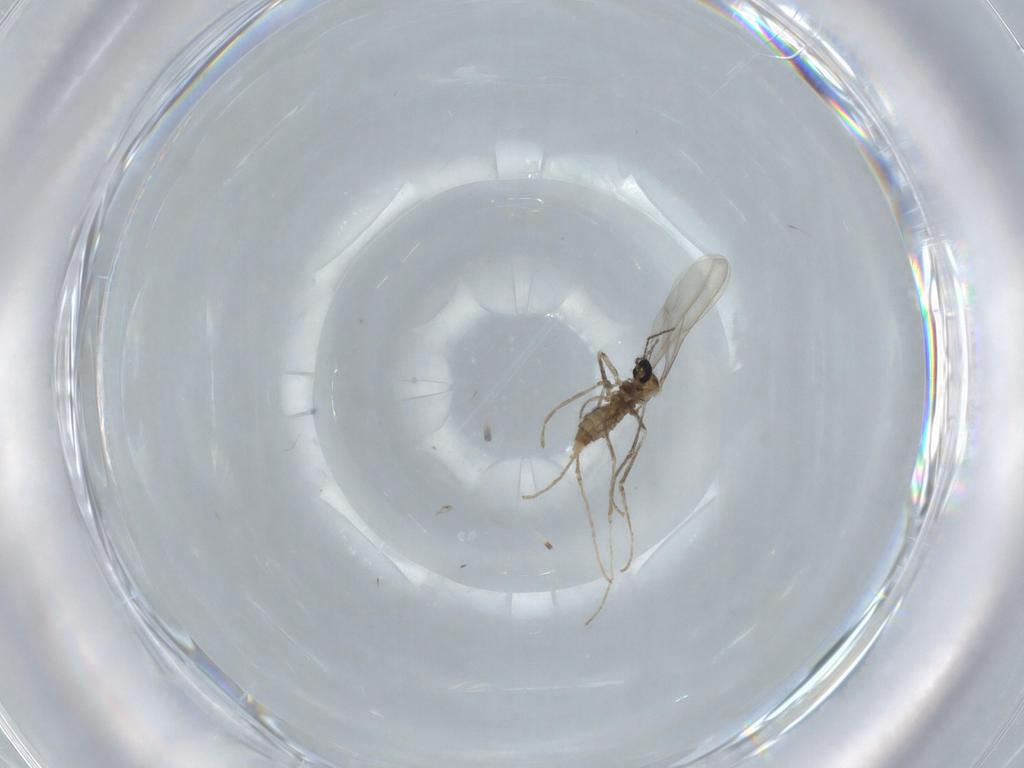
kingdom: Animalia
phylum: Arthropoda
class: Insecta
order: Diptera
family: Cecidomyiidae
